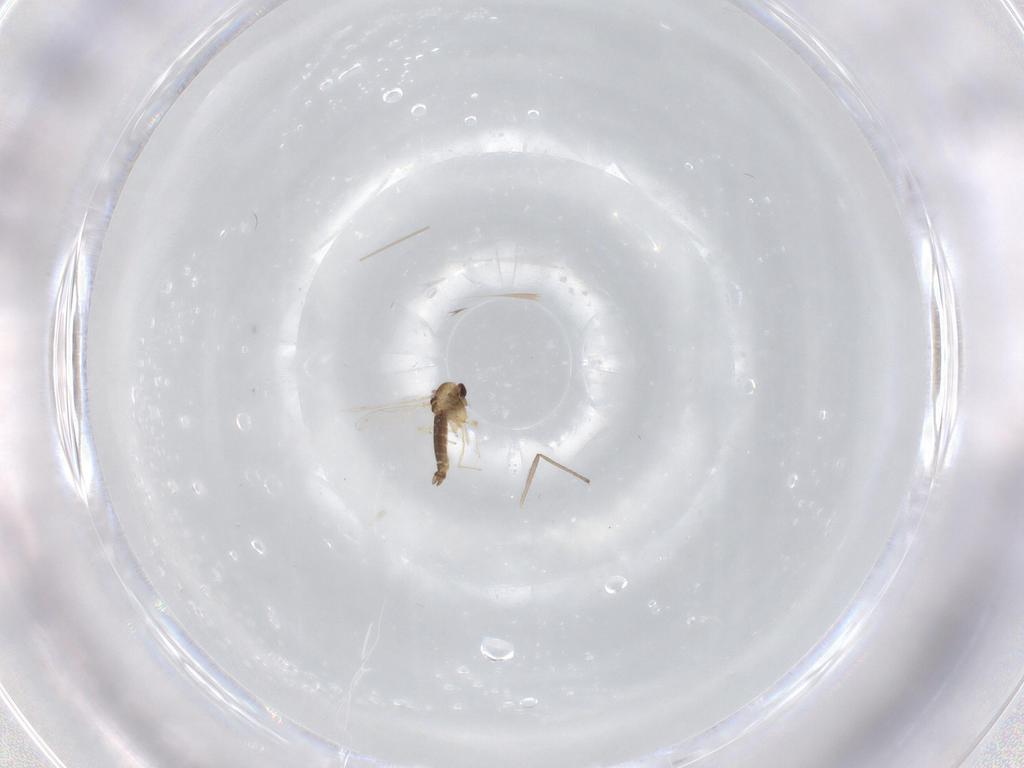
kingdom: Animalia
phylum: Arthropoda
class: Insecta
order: Diptera
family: Chironomidae
